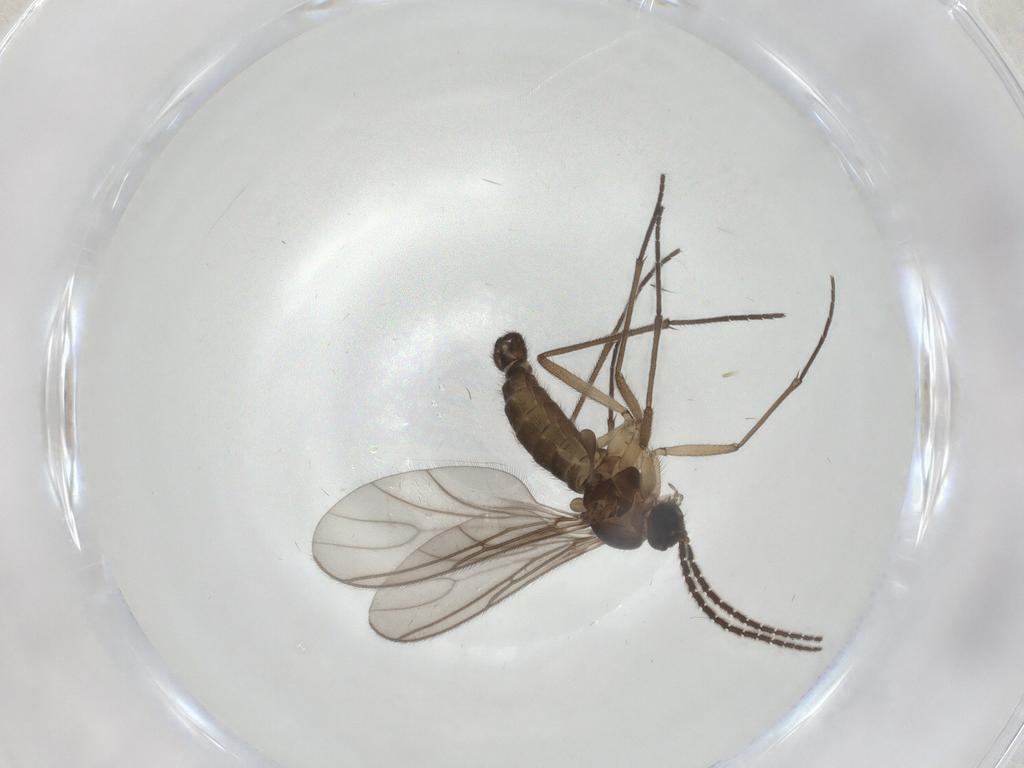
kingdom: Animalia
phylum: Arthropoda
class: Insecta
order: Diptera
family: Sciaridae
